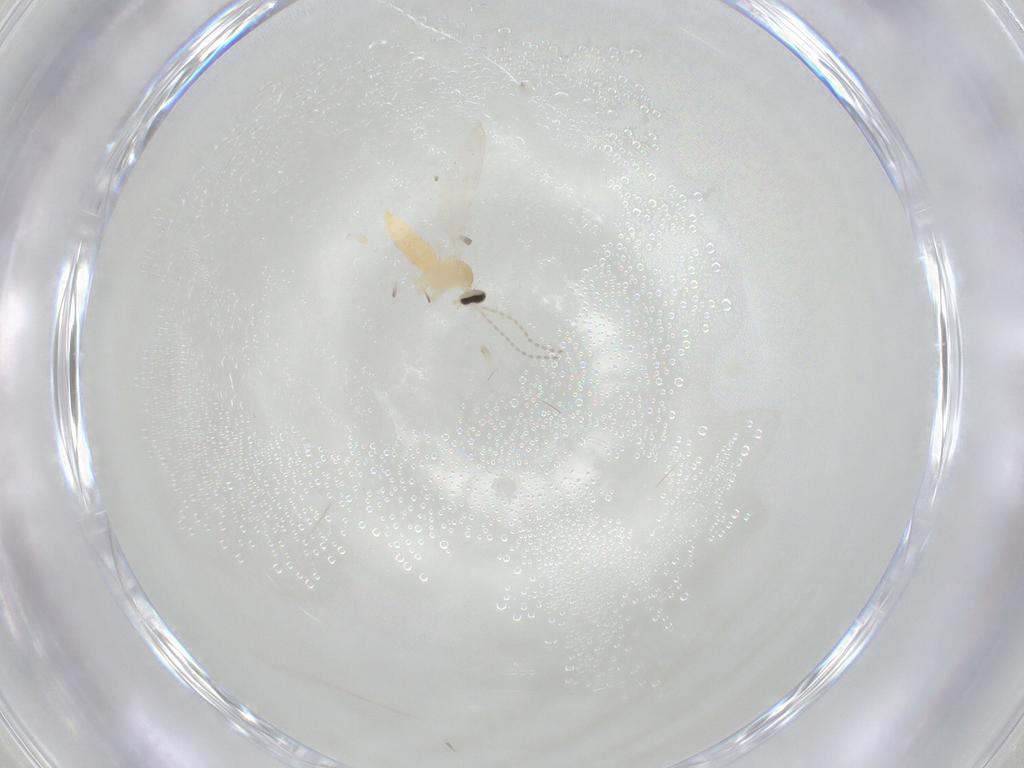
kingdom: Animalia
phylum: Arthropoda
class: Insecta
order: Diptera
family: Cecidomyiidae
